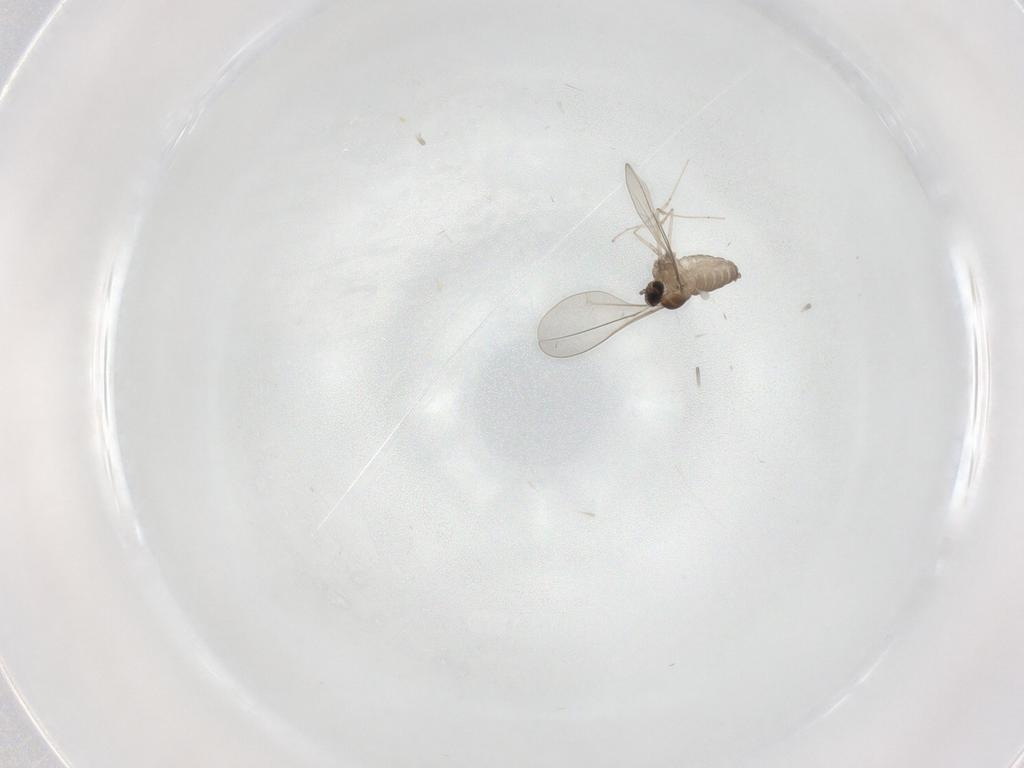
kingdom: Animalia
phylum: Arthropoda
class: Insecta
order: Diptera
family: Cecidomyiidae
